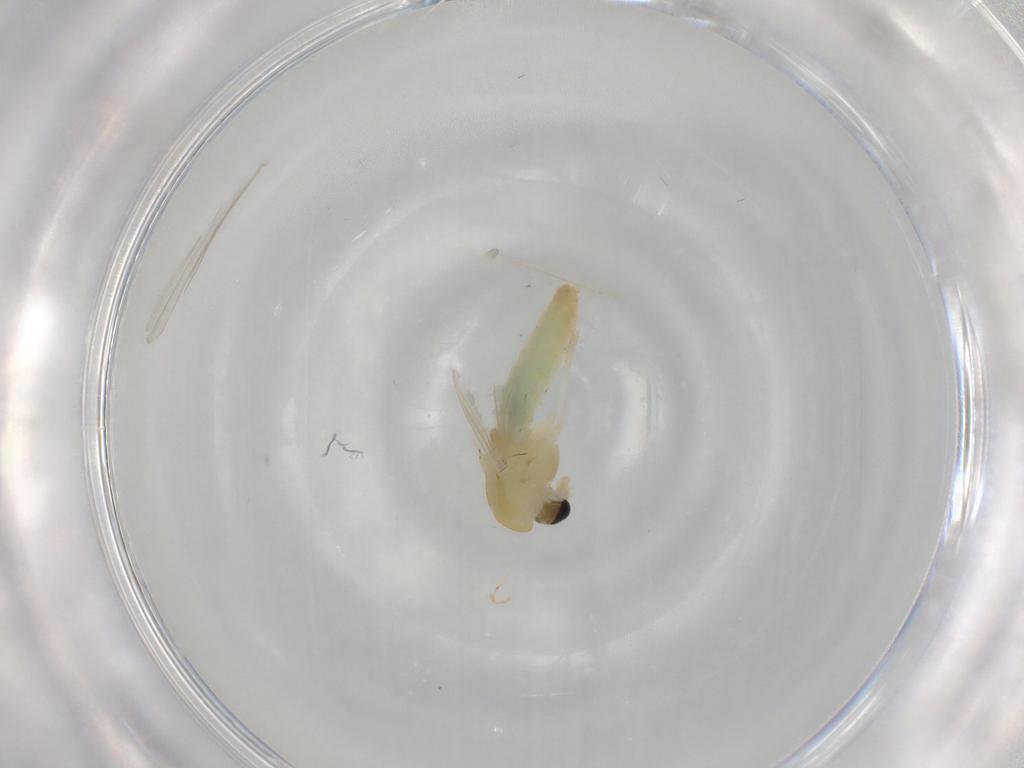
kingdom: Animalia
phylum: Arthropoda
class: Insecta
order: Diptera
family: Chironomidae
